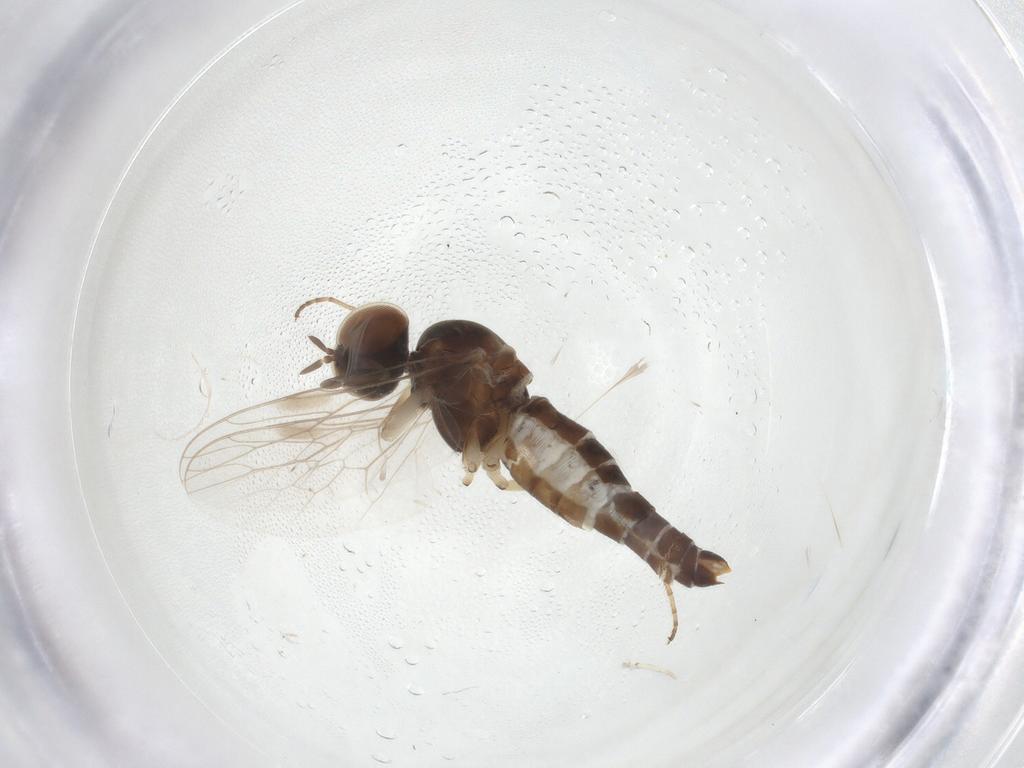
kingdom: Animalia
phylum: Arthropoda
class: Insecta
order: Diptera
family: Scenopinidae
